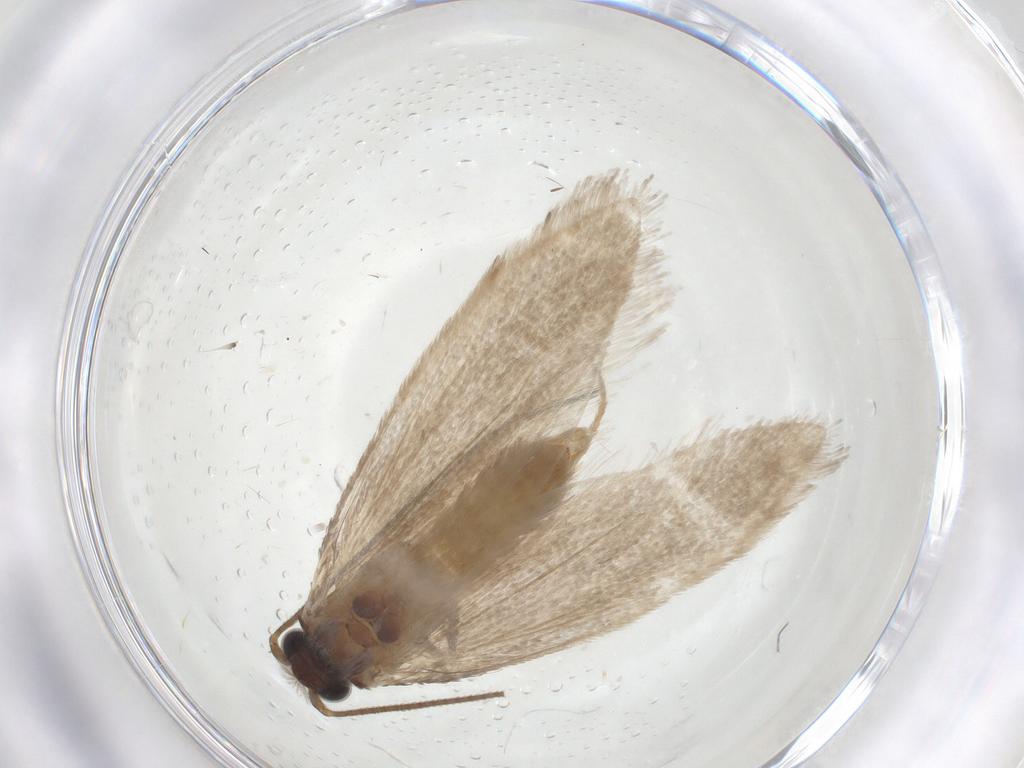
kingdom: Animalia
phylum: Arthropoda
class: Insecta
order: Lepidoptera
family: Incurvariidae
